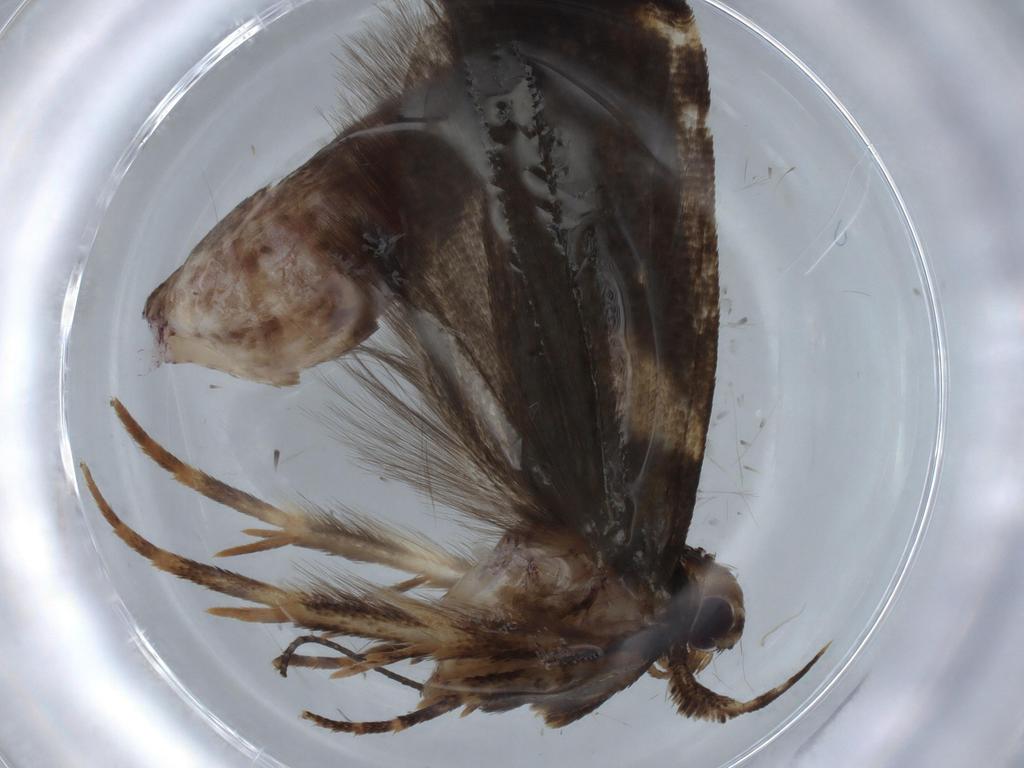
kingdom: Animalia
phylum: Arthropoda
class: Insecta
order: Lepidoptera
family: Gelechiidae
